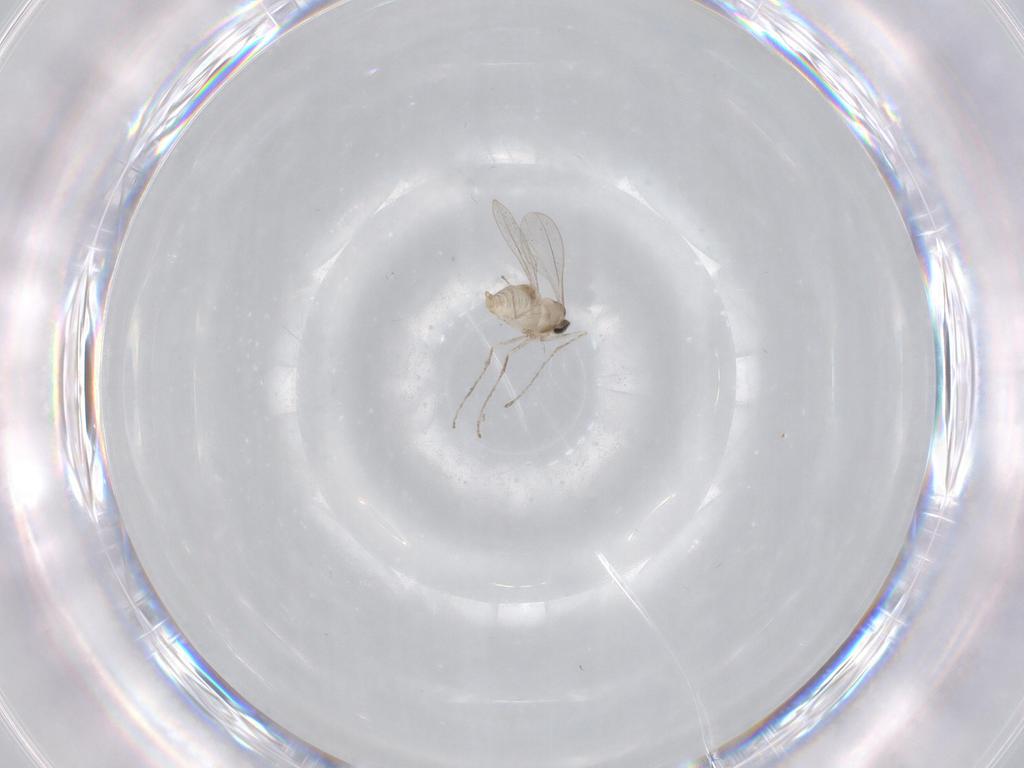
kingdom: Animalia
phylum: Arthropoda
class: Insecta
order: Diptera
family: Cecidomyiidae
